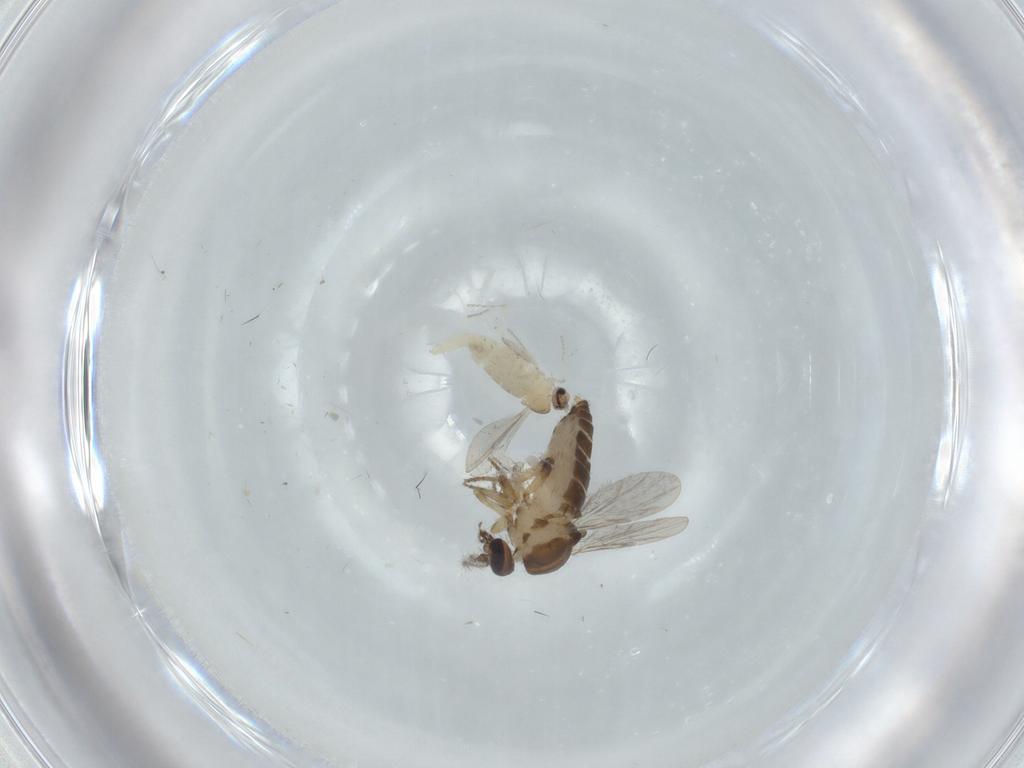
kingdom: Animalia
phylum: Arthropoda
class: Insecta
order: Diptera
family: Ceratopogonidae
